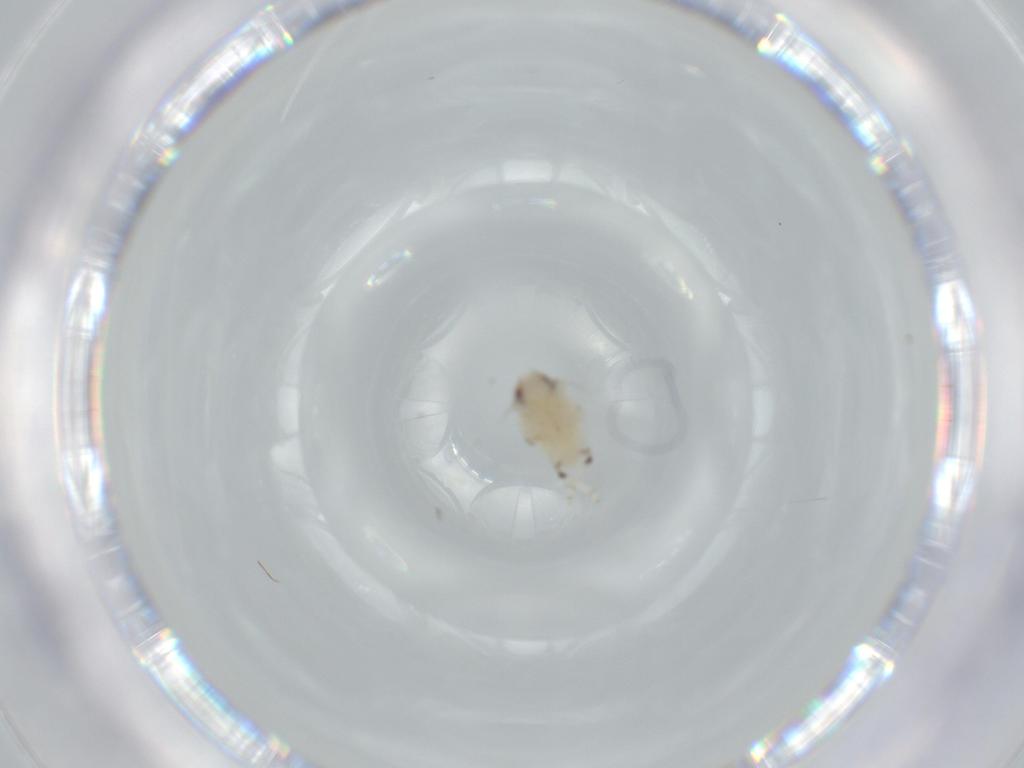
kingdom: Animalia
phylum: Arthropoda
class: Insecta
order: Hemiptera
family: Nogodinidae
